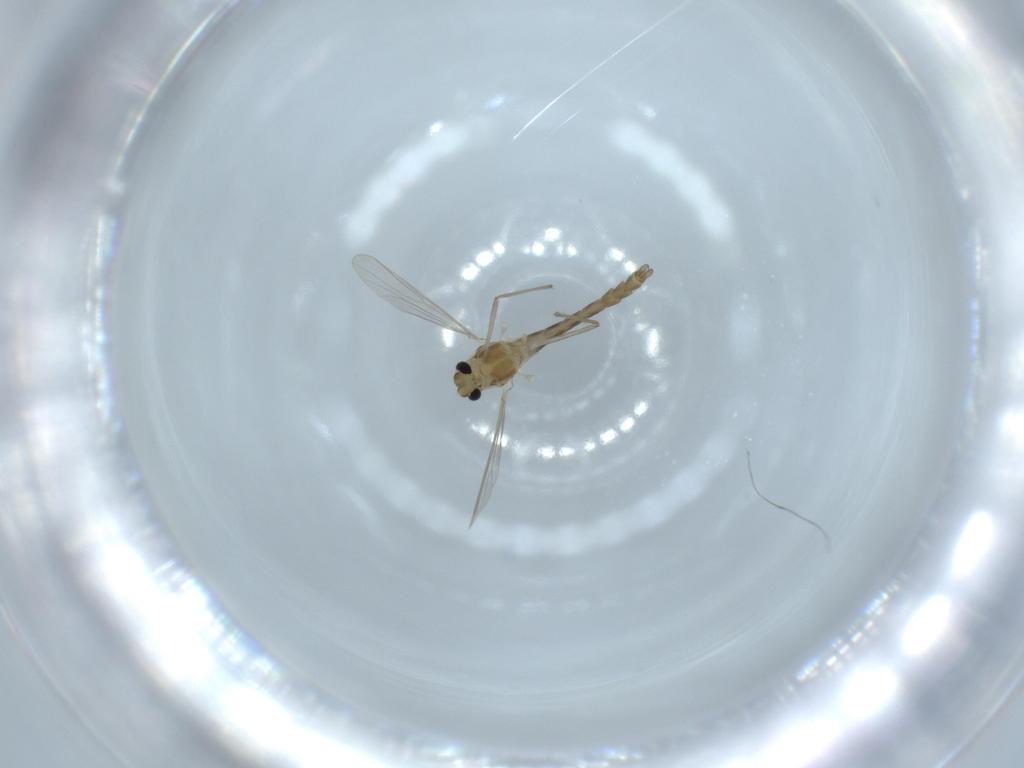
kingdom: Animalia
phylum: Arthropoda
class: Insecta
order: Diptera
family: Chironomidae
